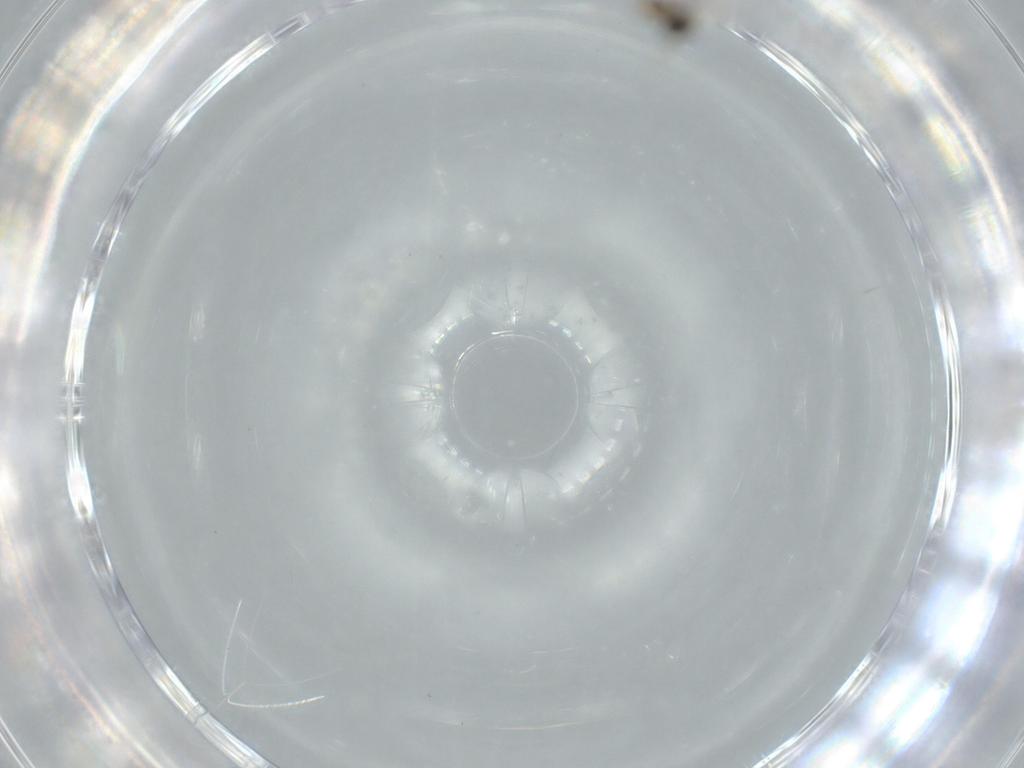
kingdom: Animalia
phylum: Arthropoda
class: Insecta
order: Diptera
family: Cecidomyiidae
